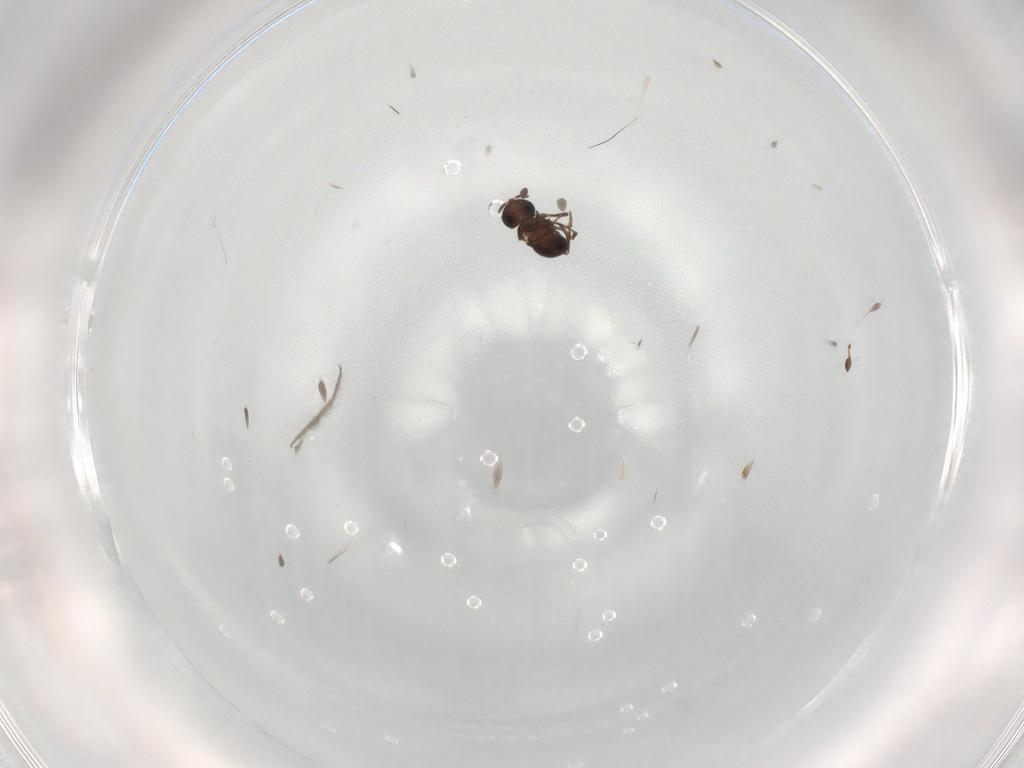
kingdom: Animalia
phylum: Arthropoda
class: Insecta
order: Hymenoptera
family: Scelionidae
